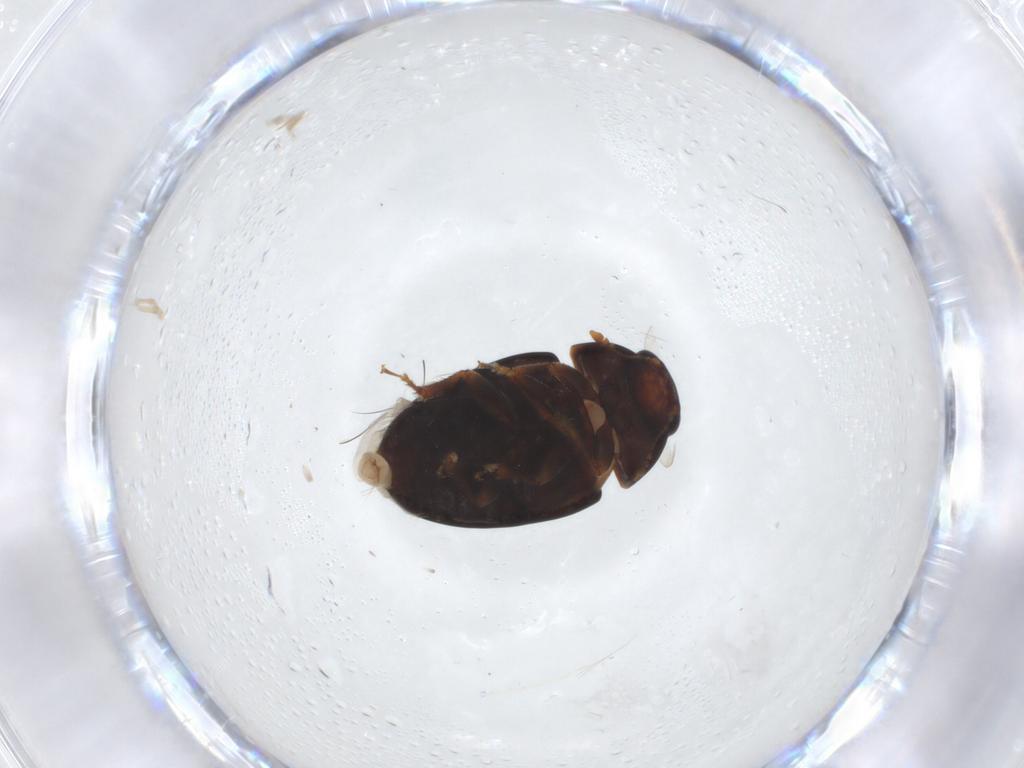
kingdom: Animalia
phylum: Arthropoda
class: Insecta
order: Coleoptera
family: Phalacridae
